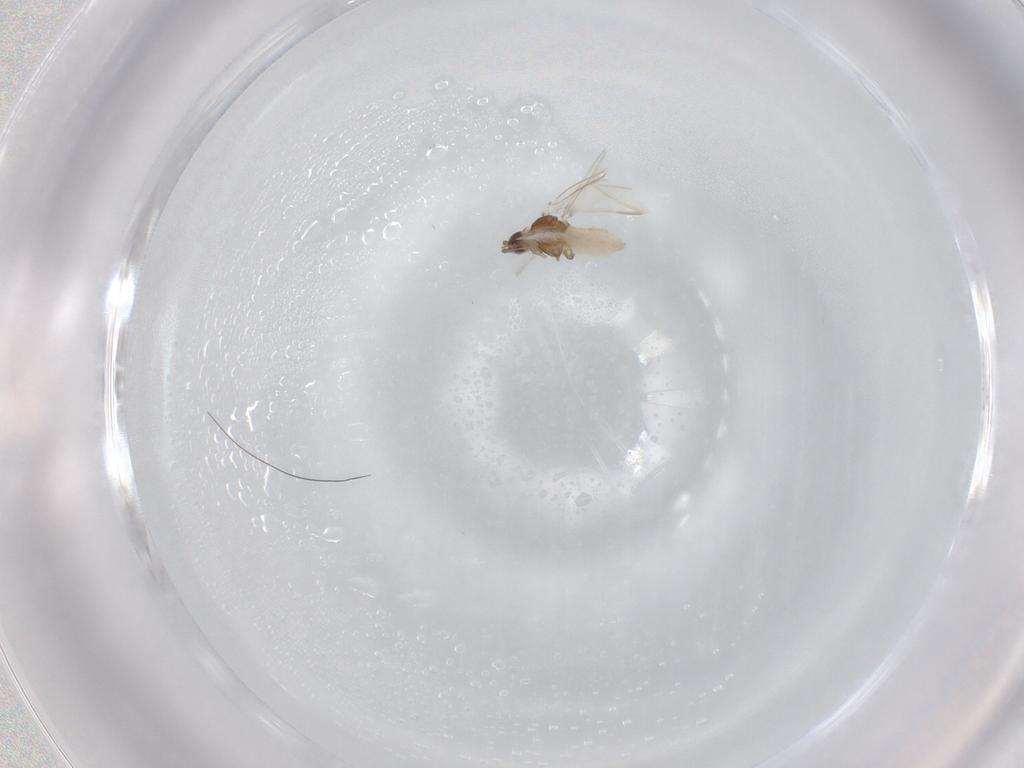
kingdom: Animalia
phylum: Arthropoda
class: Insecta
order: Hemiptera
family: Aphididae
